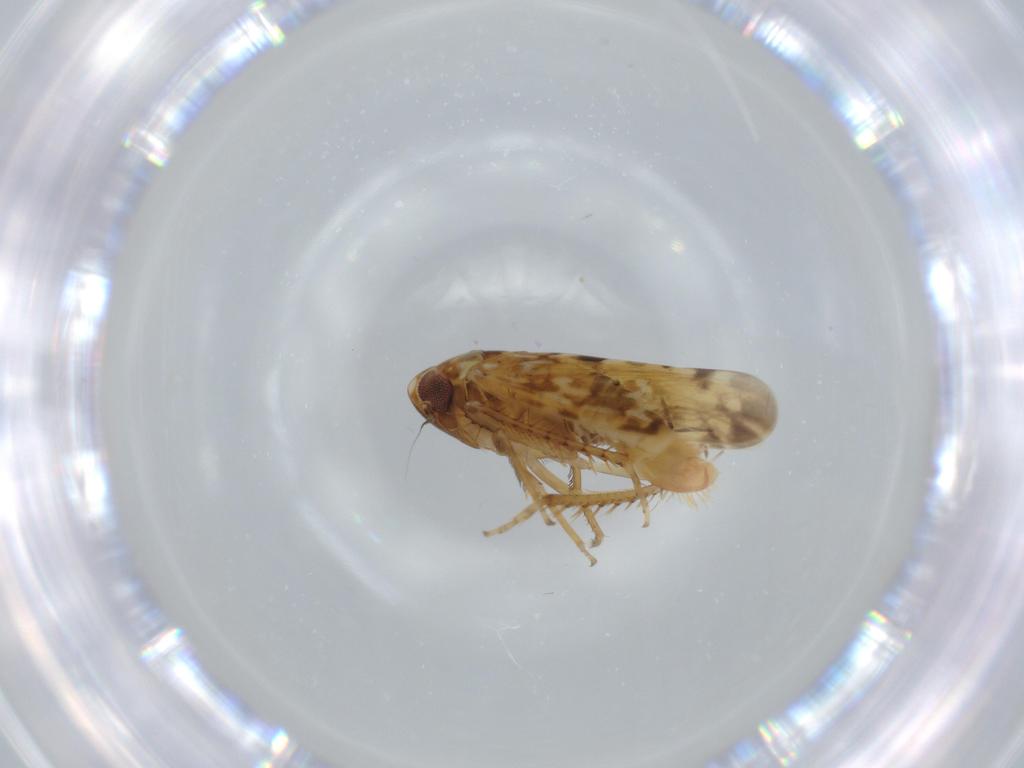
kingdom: Animalia
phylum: Arthropoda
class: Insecta
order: Hemiptera
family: Cicadellidae
